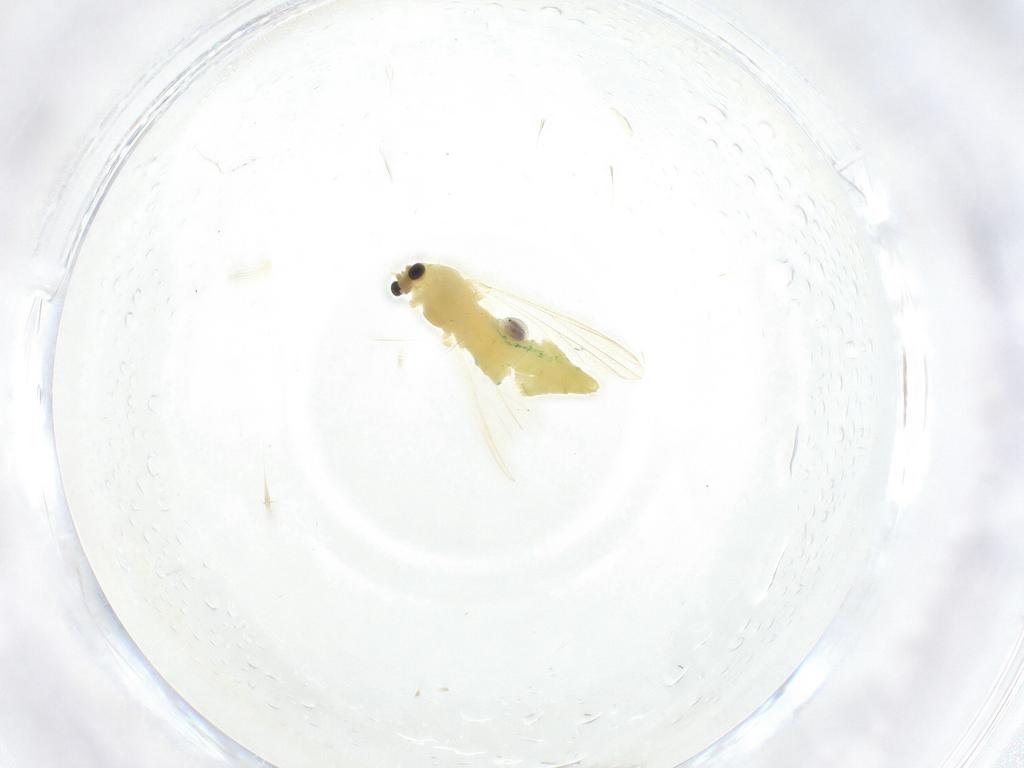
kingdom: Animalia
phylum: Arthropoda
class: Insecta
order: Diptera
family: Chironomidae
